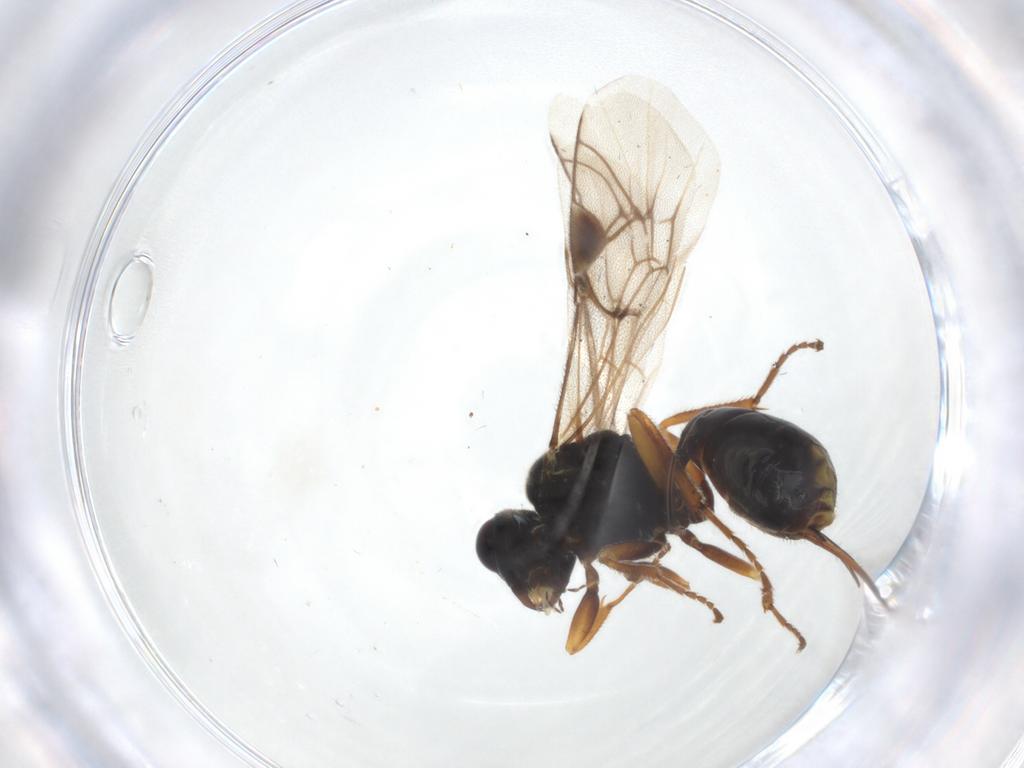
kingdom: Animalia
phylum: Arthropoda
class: Insecta
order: Hymenoptera
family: Ichneumonidae
